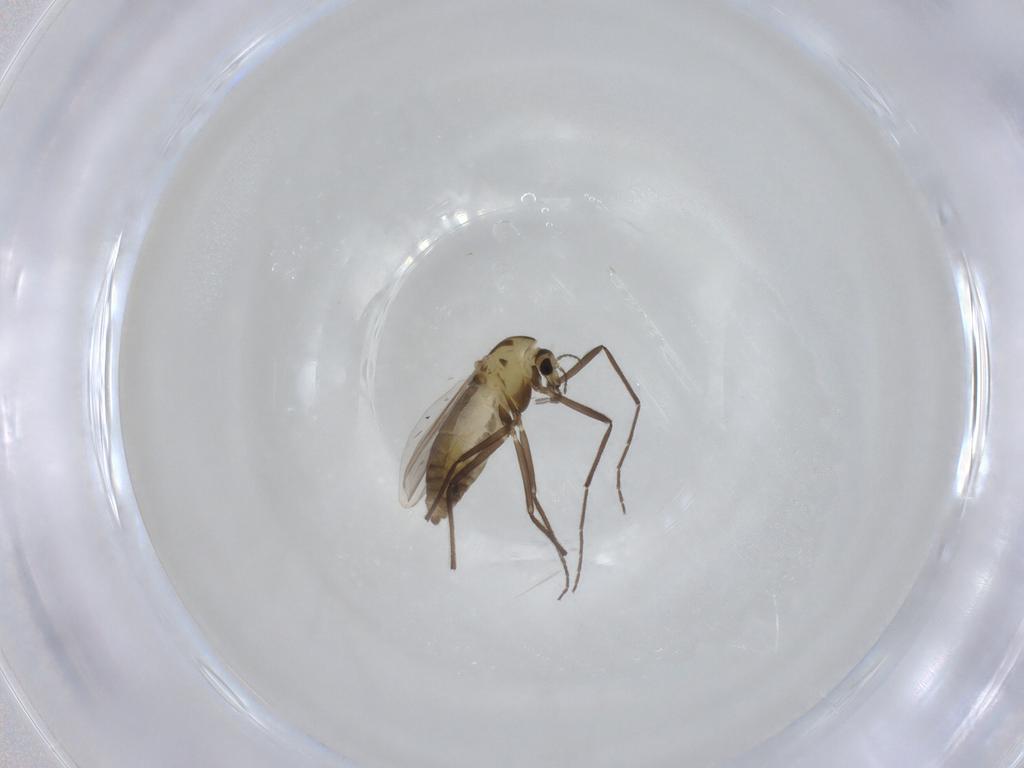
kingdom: Animalia
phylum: Arthropoda
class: Insecta
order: Diptera
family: Chironomidae
